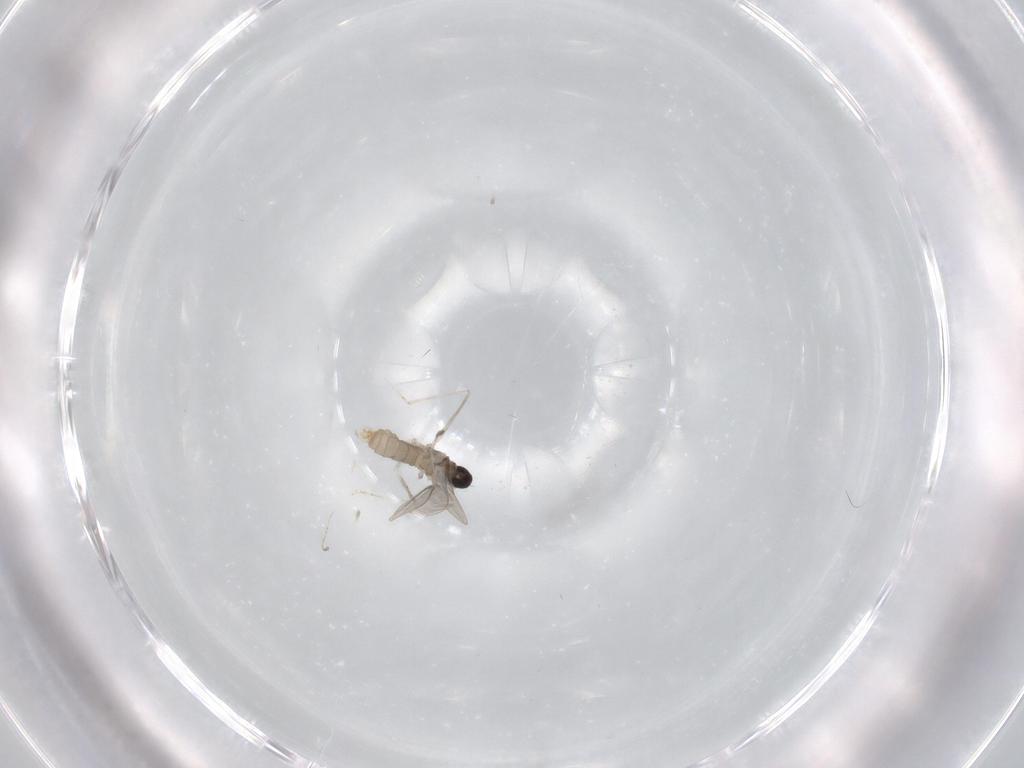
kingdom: Animalia
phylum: Arthropoda
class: Insecta
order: Diptera
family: Cecidomyiidae
